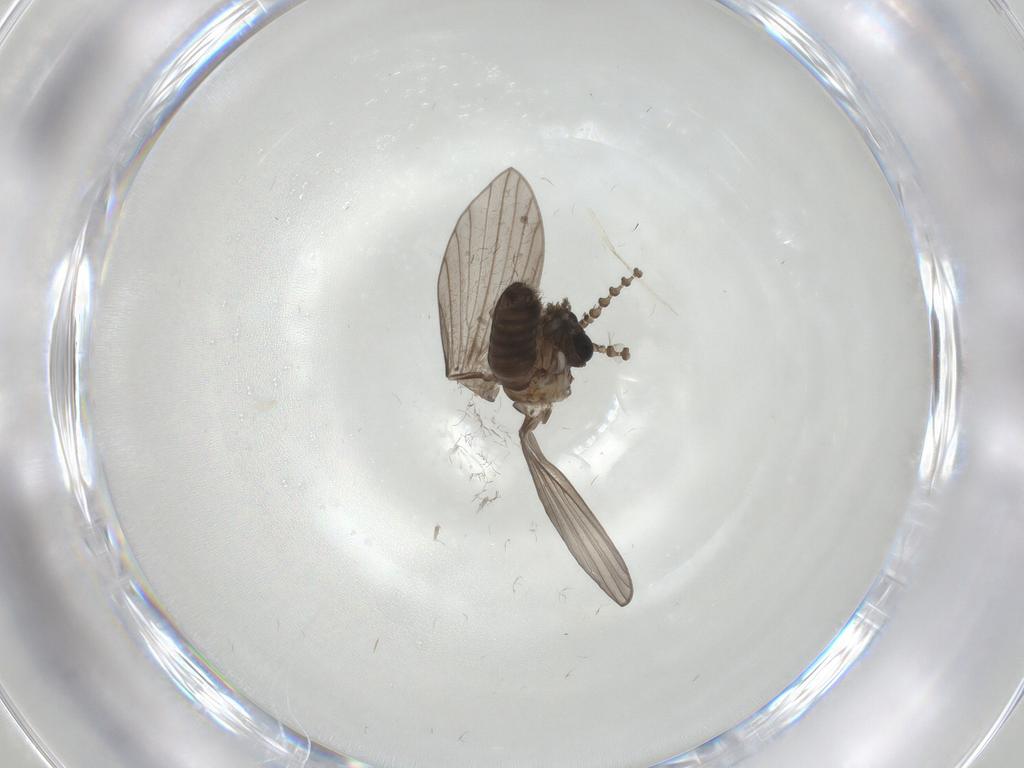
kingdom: Animalia
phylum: Arthropoda
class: Insecta
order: Diptera
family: Psychodidae
